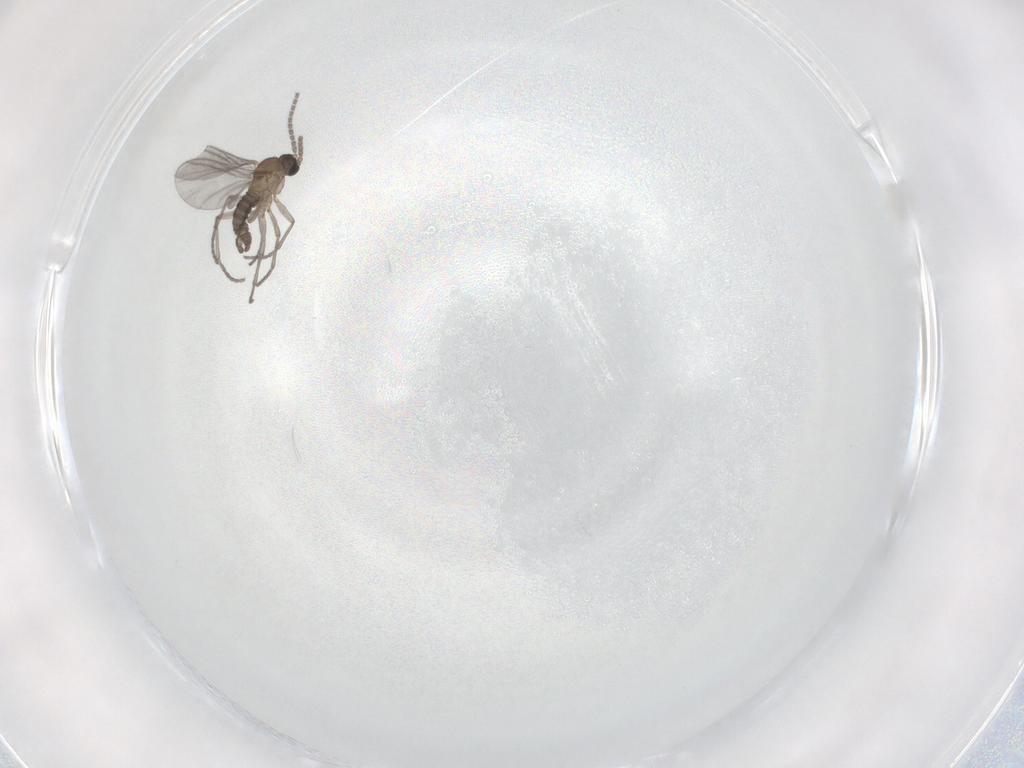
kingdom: Animalia
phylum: Arthropoda
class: Insecta
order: Diptera
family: Sciaridae
